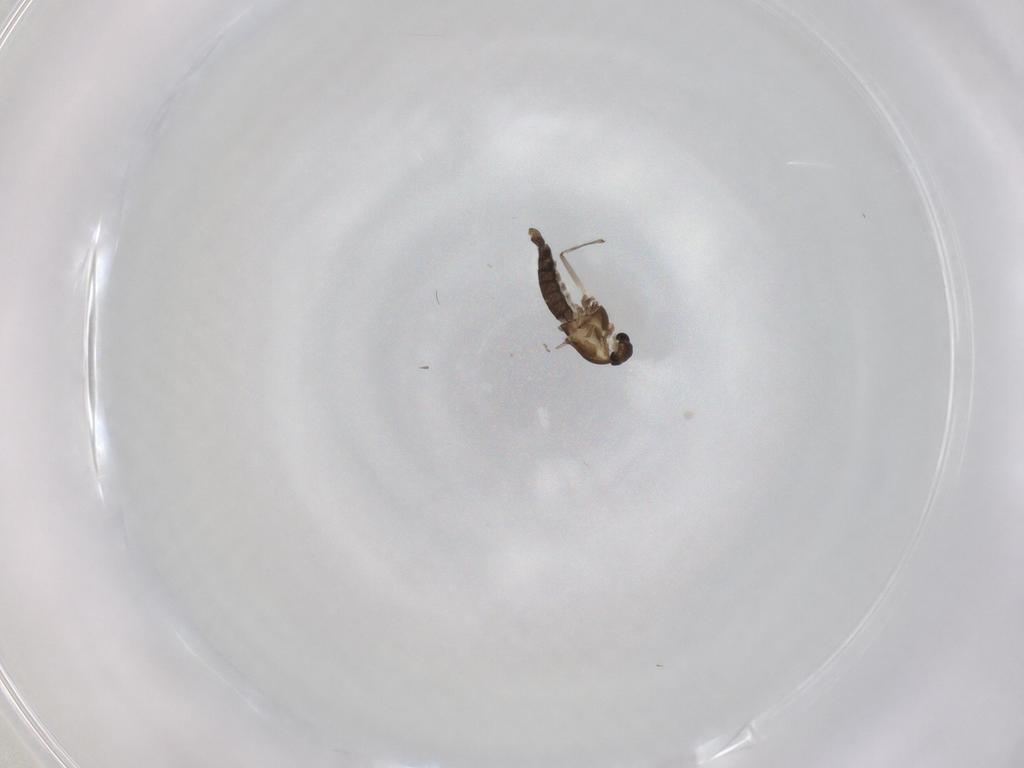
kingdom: Animalia
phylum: Arthropoda
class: Insecta
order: Diptera
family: Chironomidae
